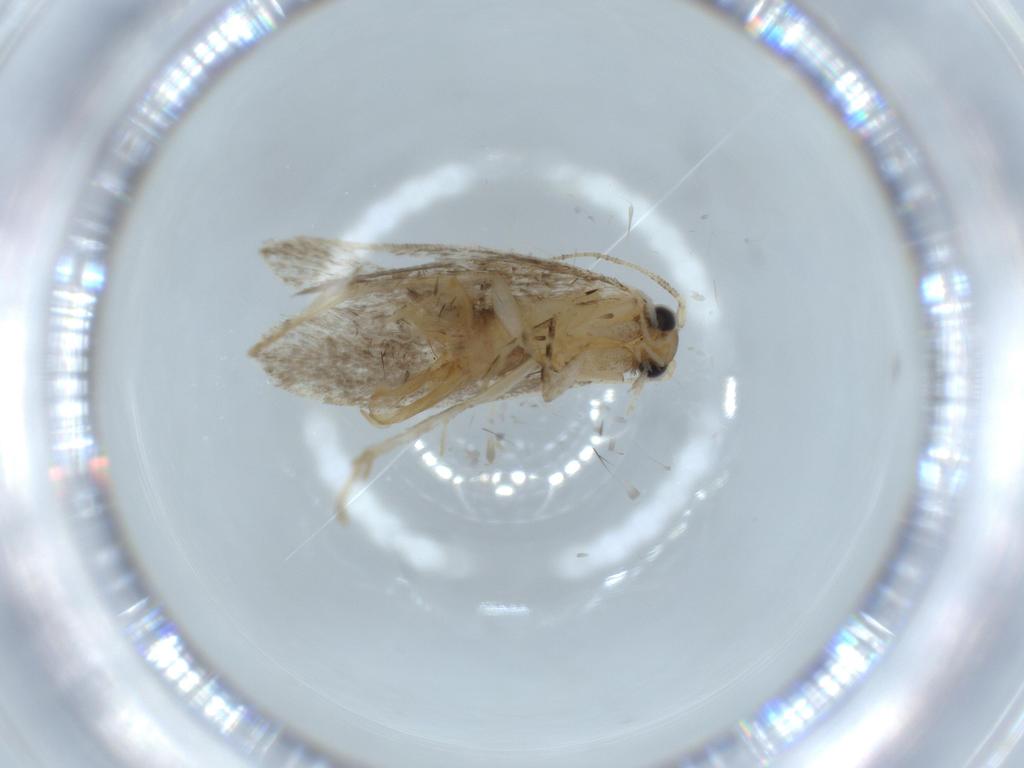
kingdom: Animalia
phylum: Arthropoda
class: Insecta
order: Lepidoptera
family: Tineidae
